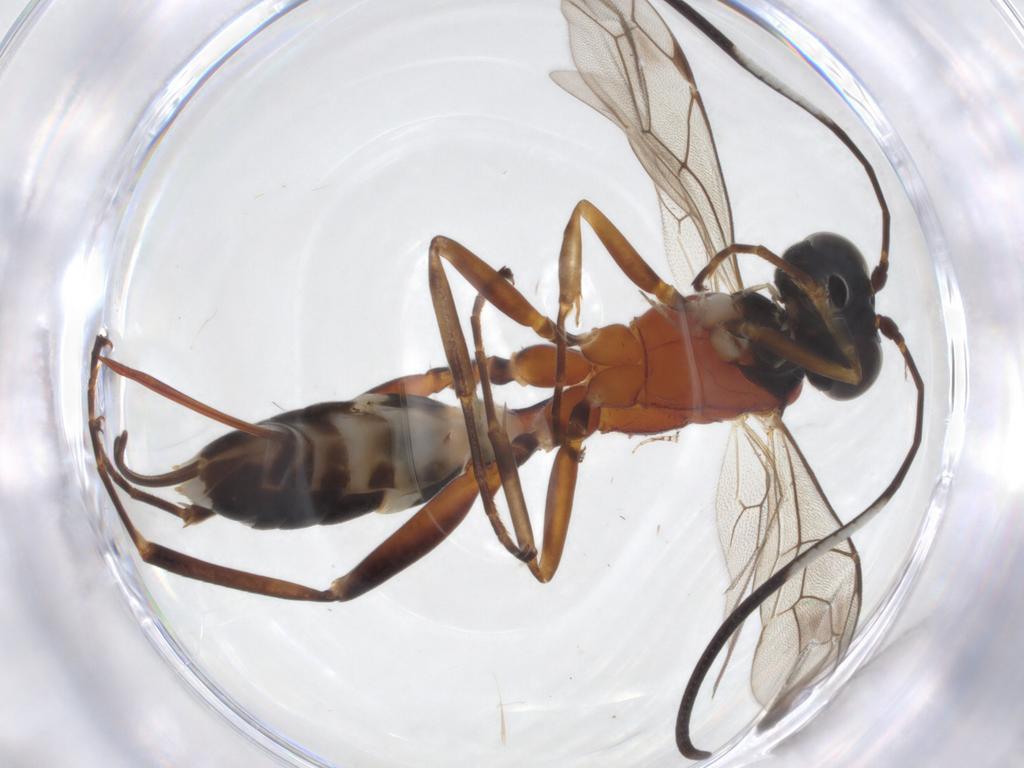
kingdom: Animalia
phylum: Arthropoda
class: Insecta
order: Hymenoptera
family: Ichneumonidae
